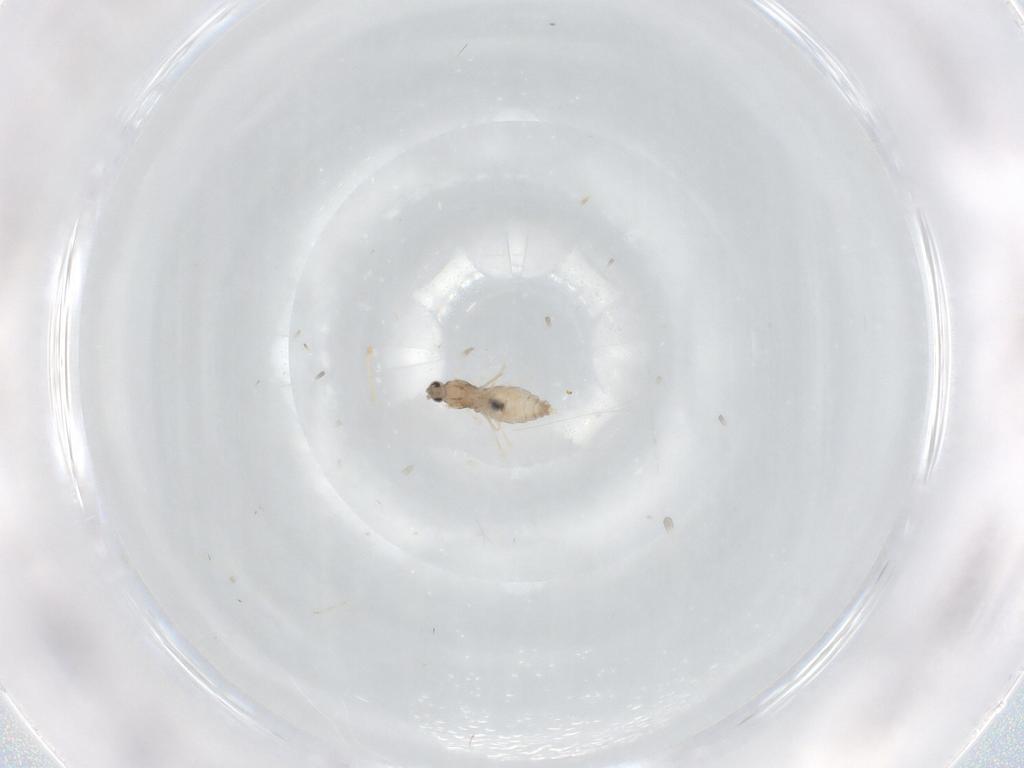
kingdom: Animalia
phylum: Arthropoda
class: Insecta
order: Diptera
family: Cecidomyiidae
